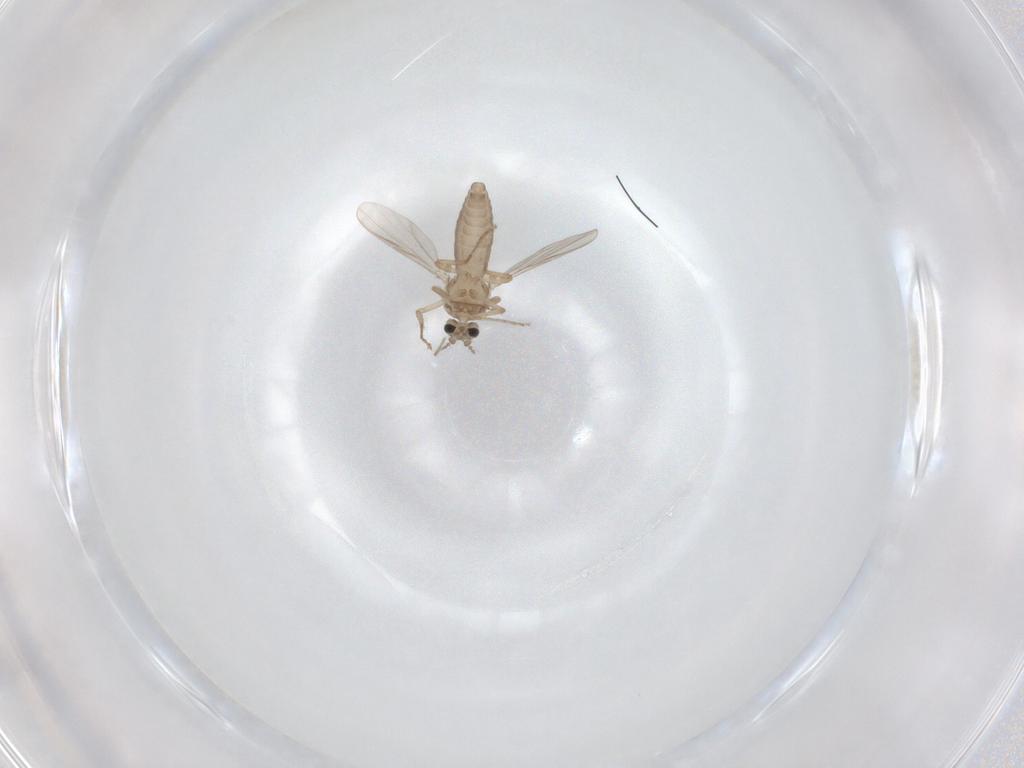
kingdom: Animalia
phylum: Arthropoda
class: Insecta
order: Diptera
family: Ceratopogonidae
